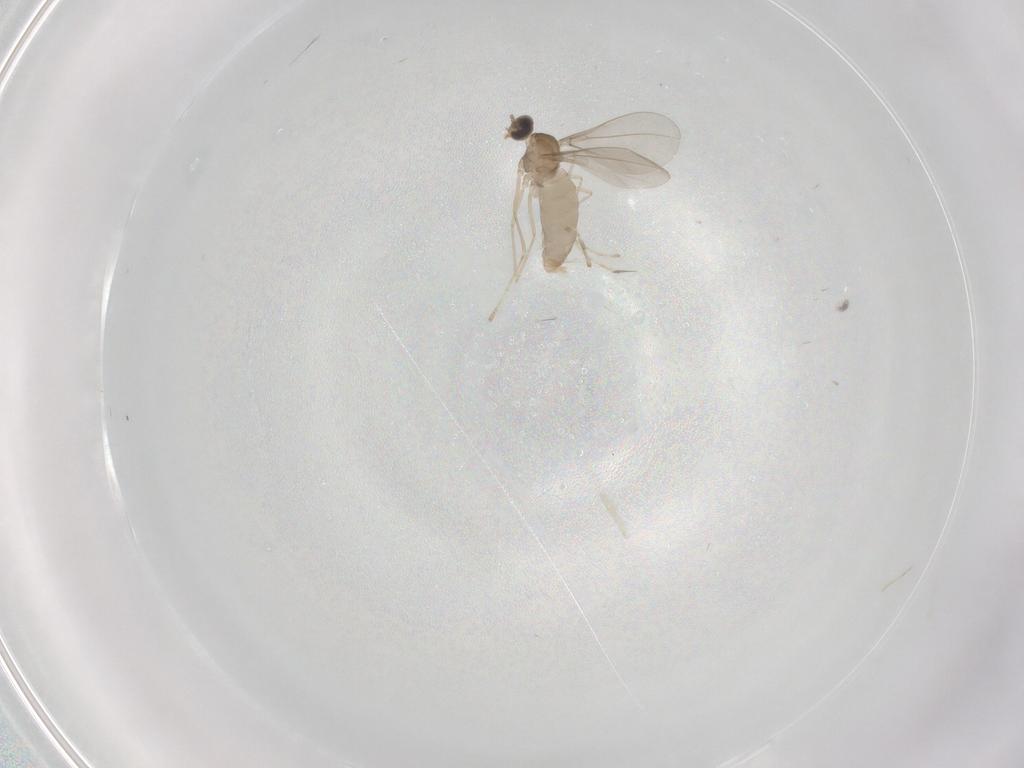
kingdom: Animalia
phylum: Arthropoda
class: Insecta
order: Diptera
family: Cecidomyiidae
